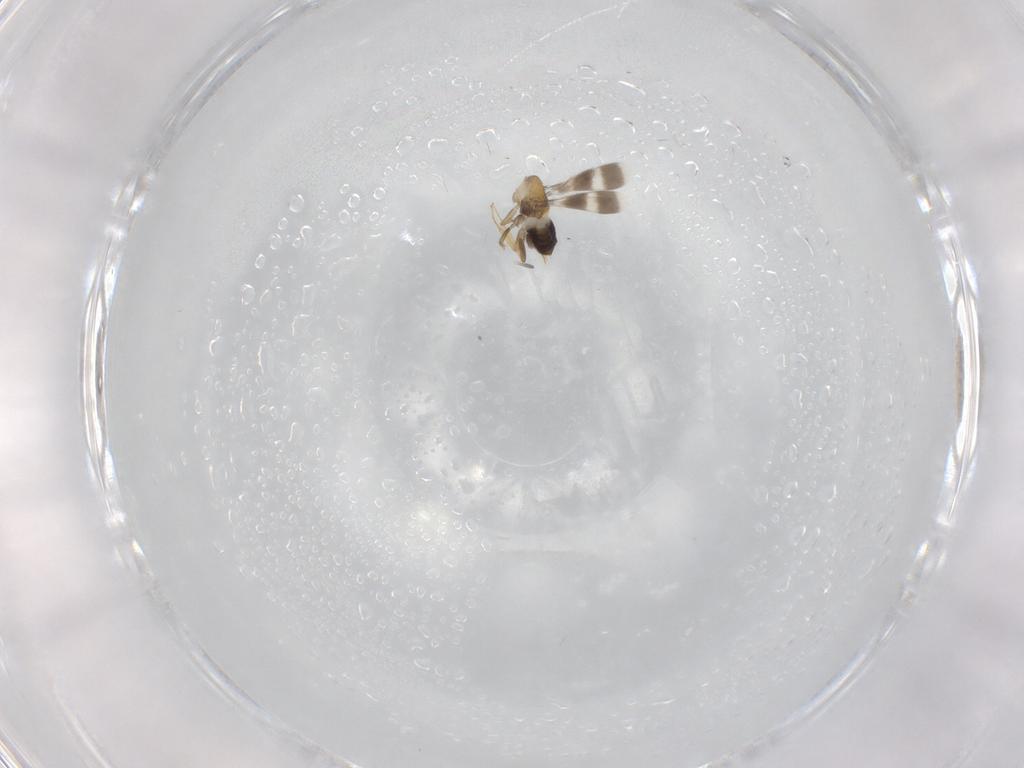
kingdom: Animalia
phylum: Arthropoda
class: Insecta
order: Hymenoptera
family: Aphelinidae
